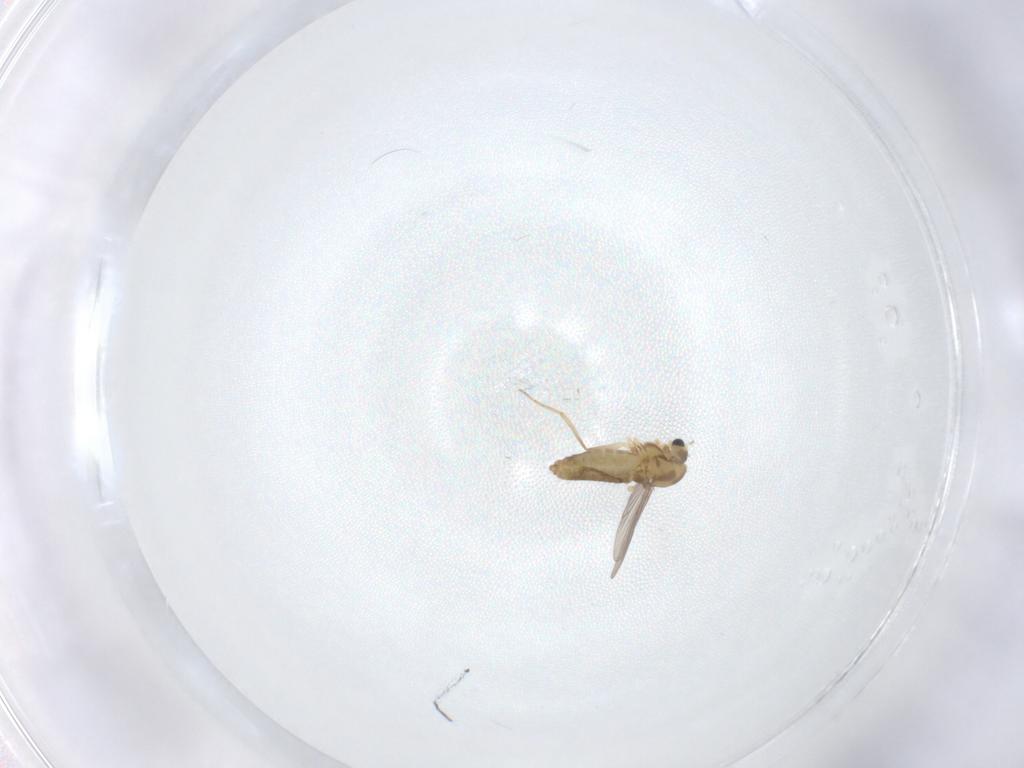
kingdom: Animalia
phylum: Arthropoda
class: Insecta
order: Diptera
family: Chironomidae
